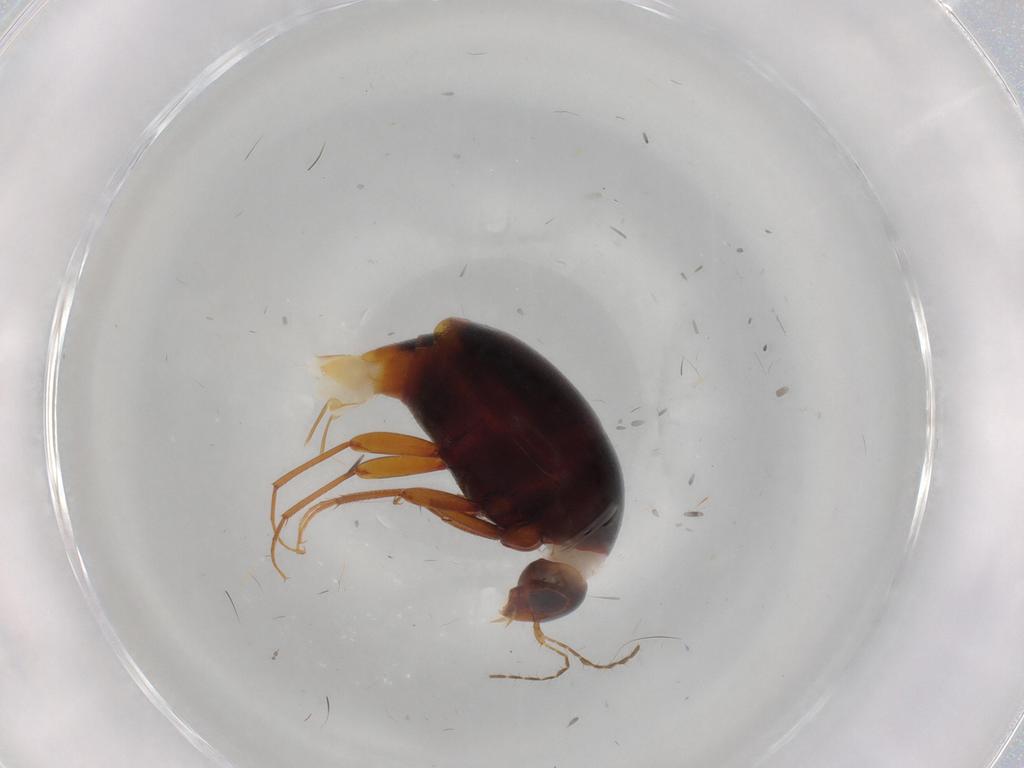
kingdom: Animalia
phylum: Arthropoda
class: Insecta
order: Coleoptera
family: Staphylinidae
